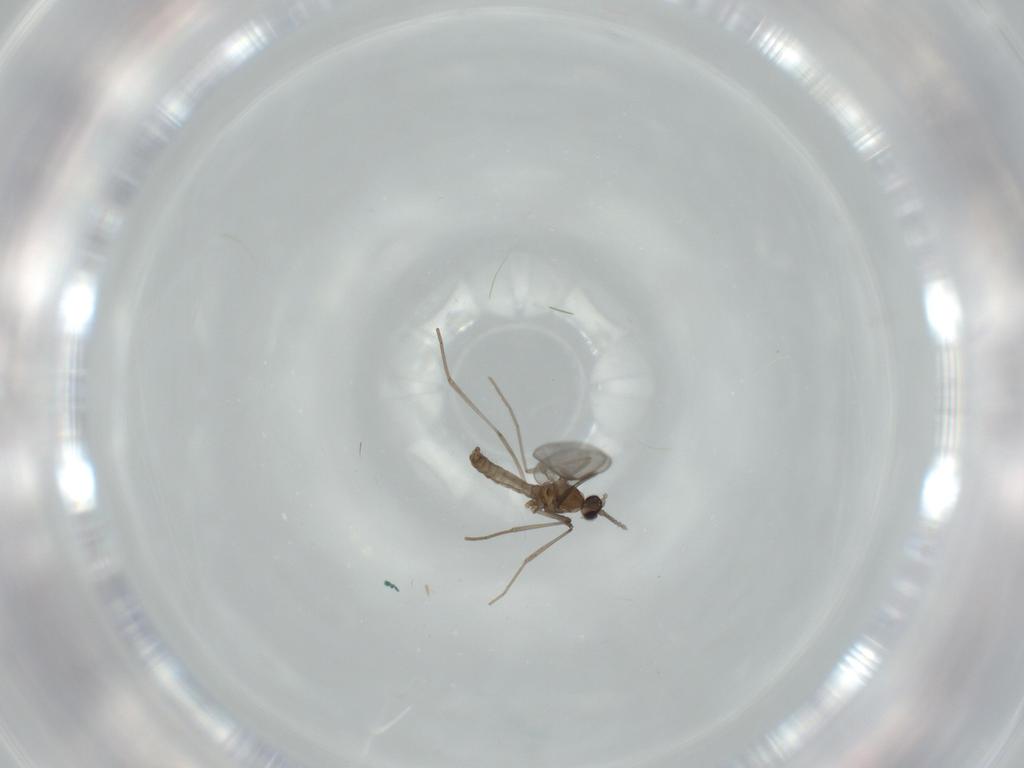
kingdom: Animalia
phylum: Arthropoda
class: Insecta
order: Diptera
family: Cecidomyiidae
